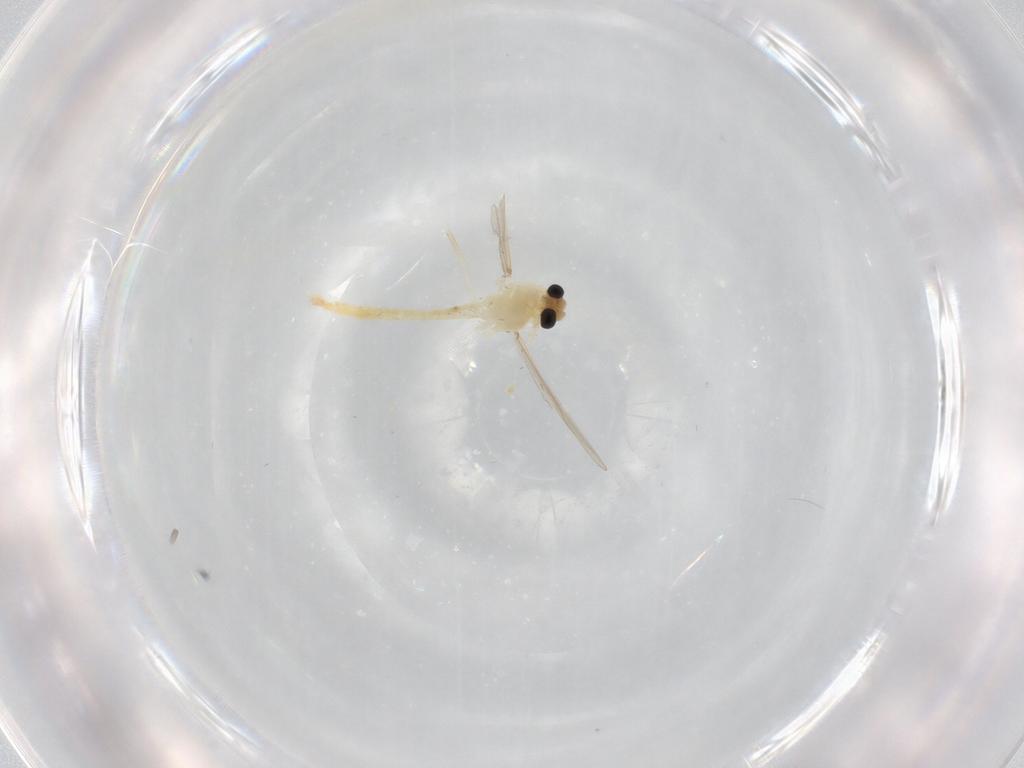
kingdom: Animalia
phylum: Arthropoda
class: Insecta
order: Diptera
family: Chironomidae
